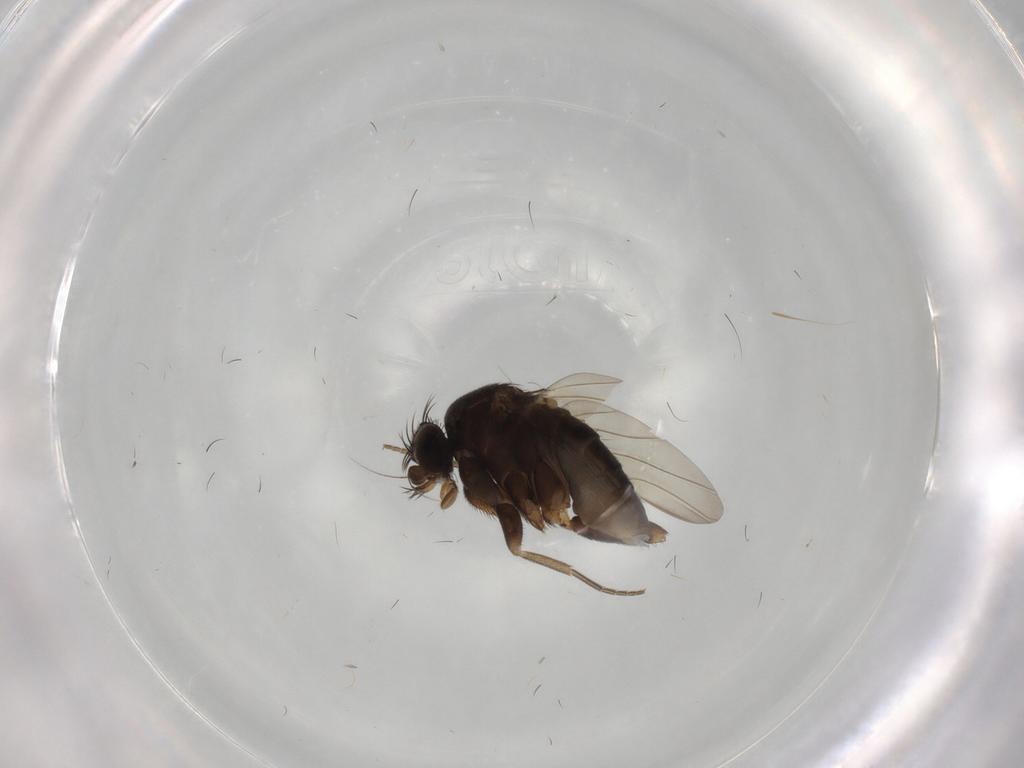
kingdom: Animalia
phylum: Arthropoda
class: Insecta
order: Diptera
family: Phoridae
